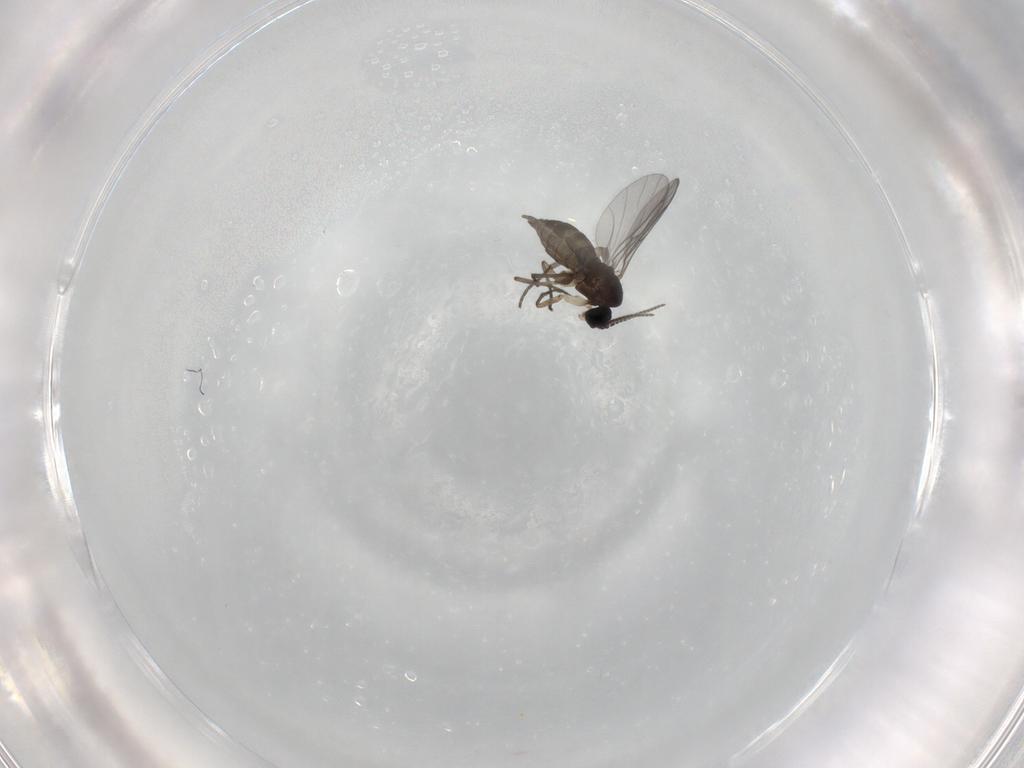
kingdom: Animalia
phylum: Arthropoda
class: Insecta
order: Diptera
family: Sciaridae
